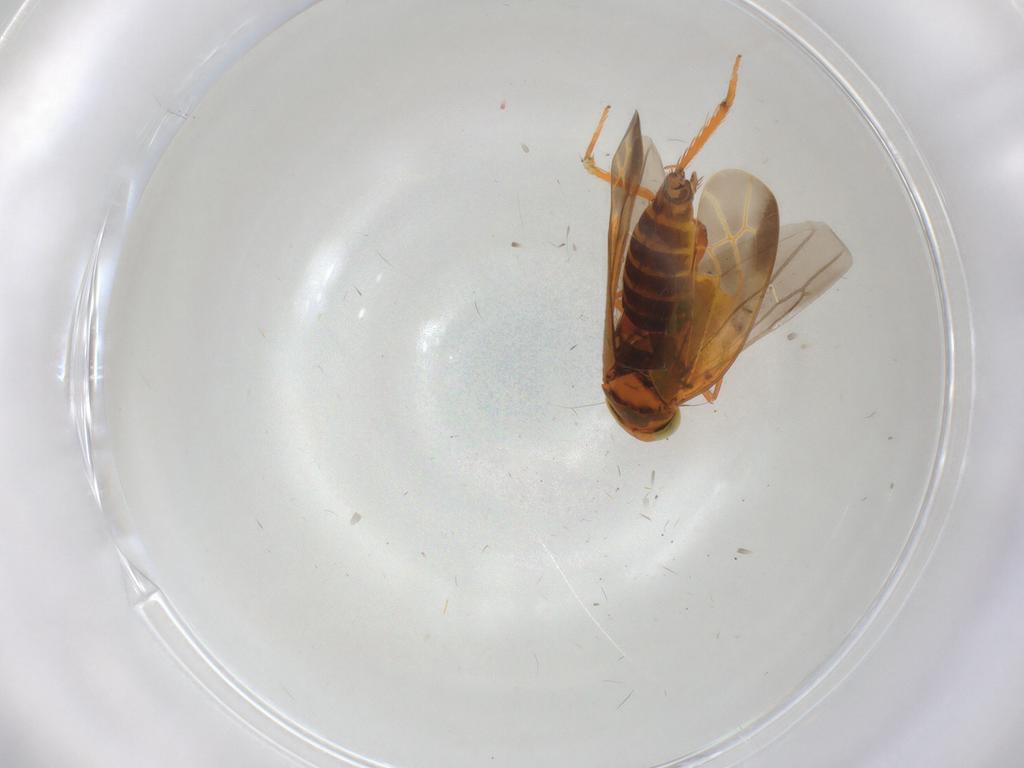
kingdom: Animalia
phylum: Arthropoda
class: Insecta
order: Hemiptera
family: Cicadellidae
